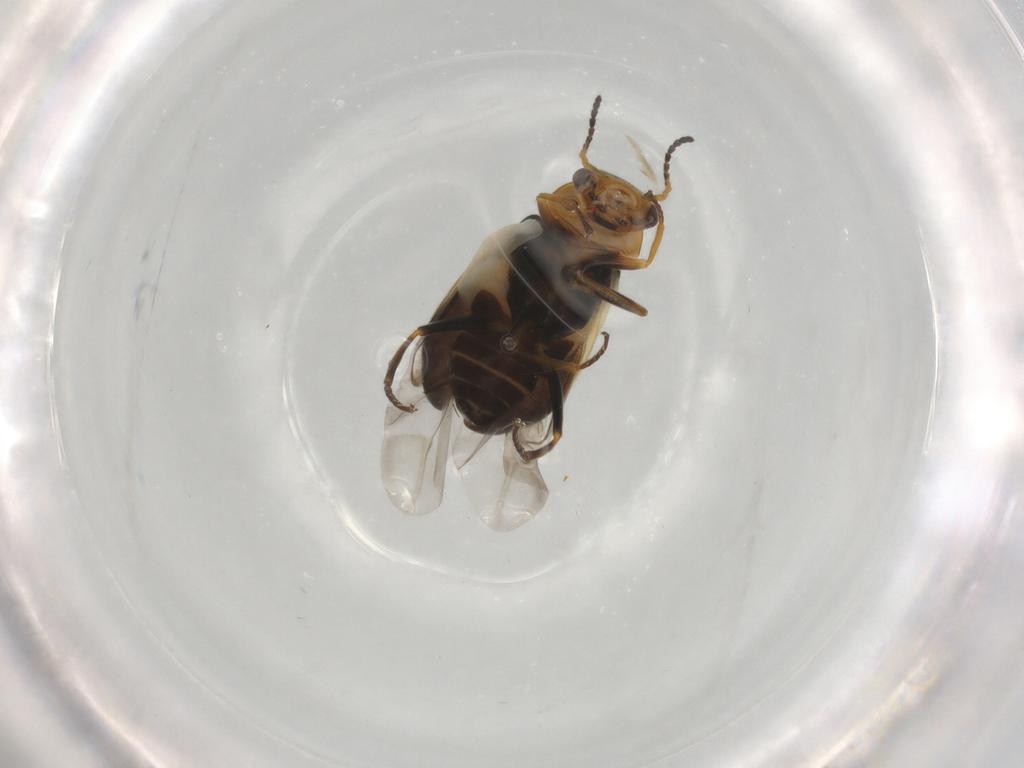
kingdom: Animalia
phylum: Arthropoda
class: Insecta
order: Coleoptera
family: Melyridae
